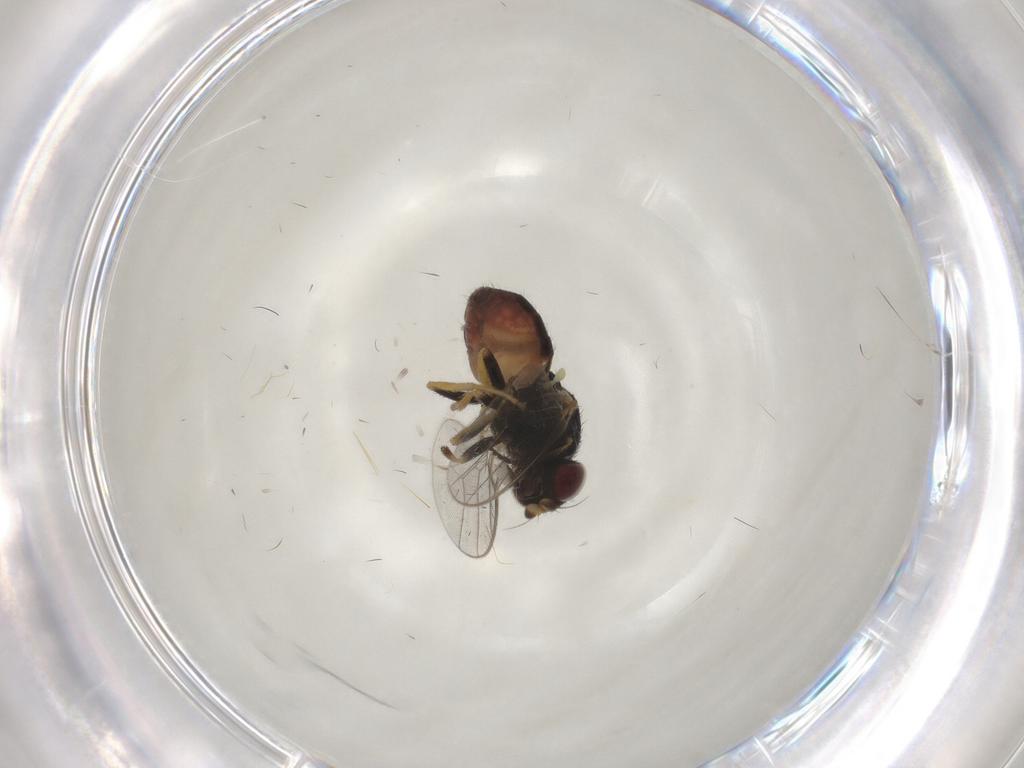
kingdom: Animalia
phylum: Arthropoda
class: Insecta
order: Diptera
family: Chloropidae
